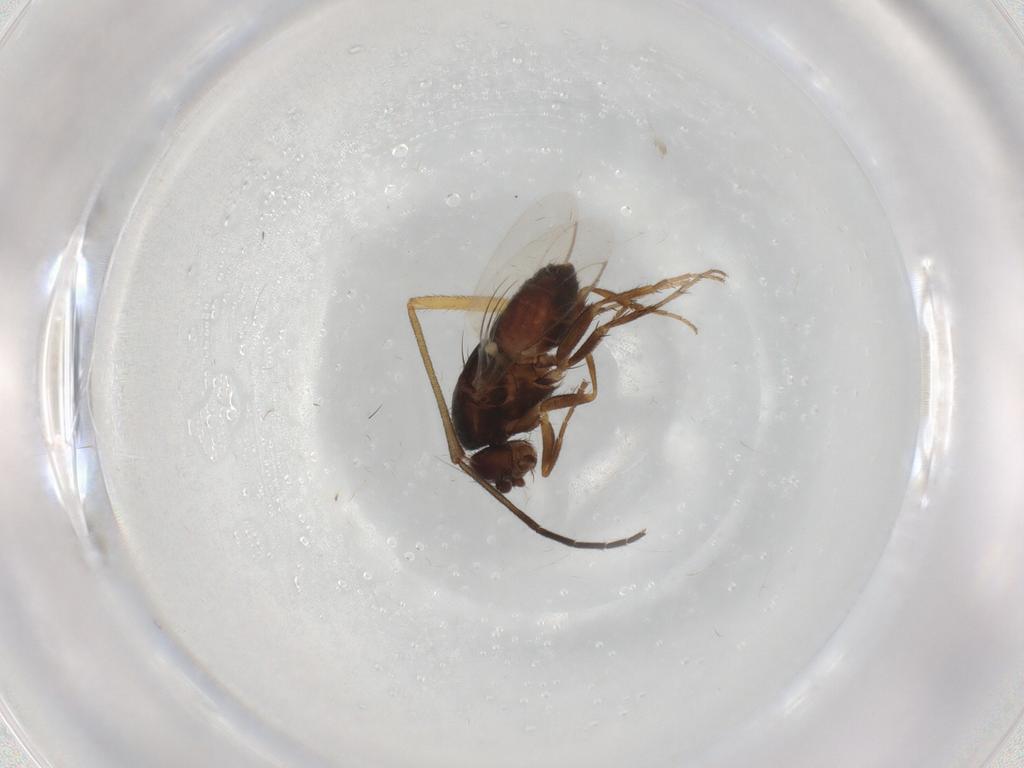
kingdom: Animalia
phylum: Arthropoda
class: Insecta
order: Diptera
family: Sphaeroceridae
